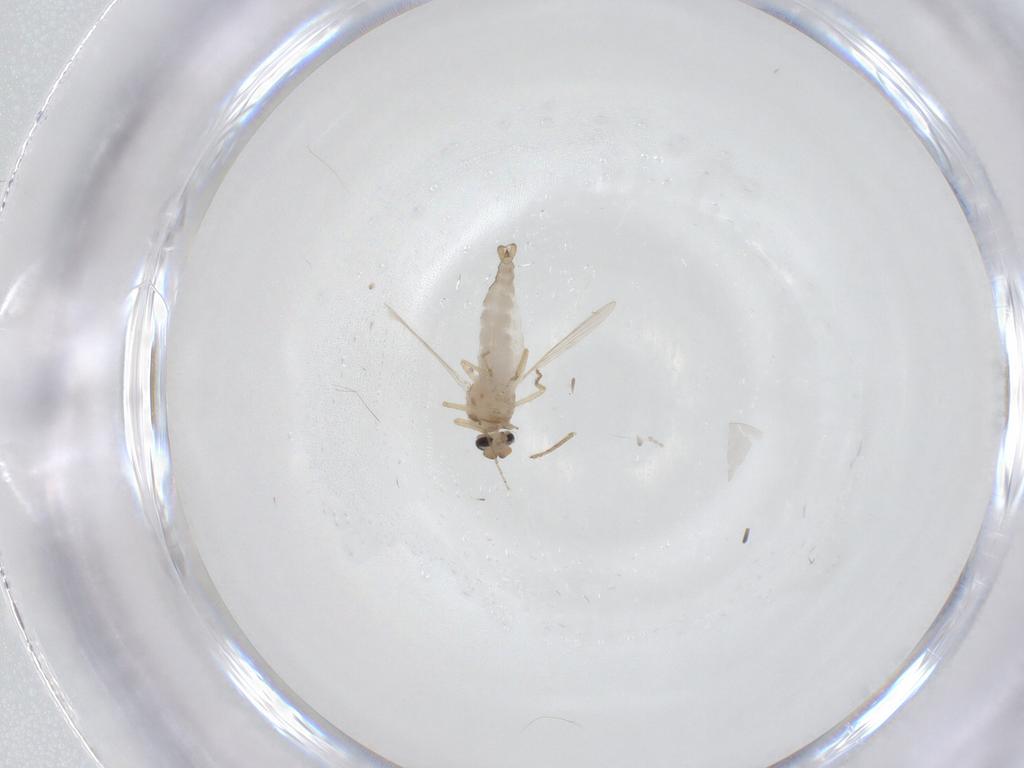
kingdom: Animalia
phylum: Arthropoda
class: Insecta
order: Diptera
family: Ceratopogonidae
